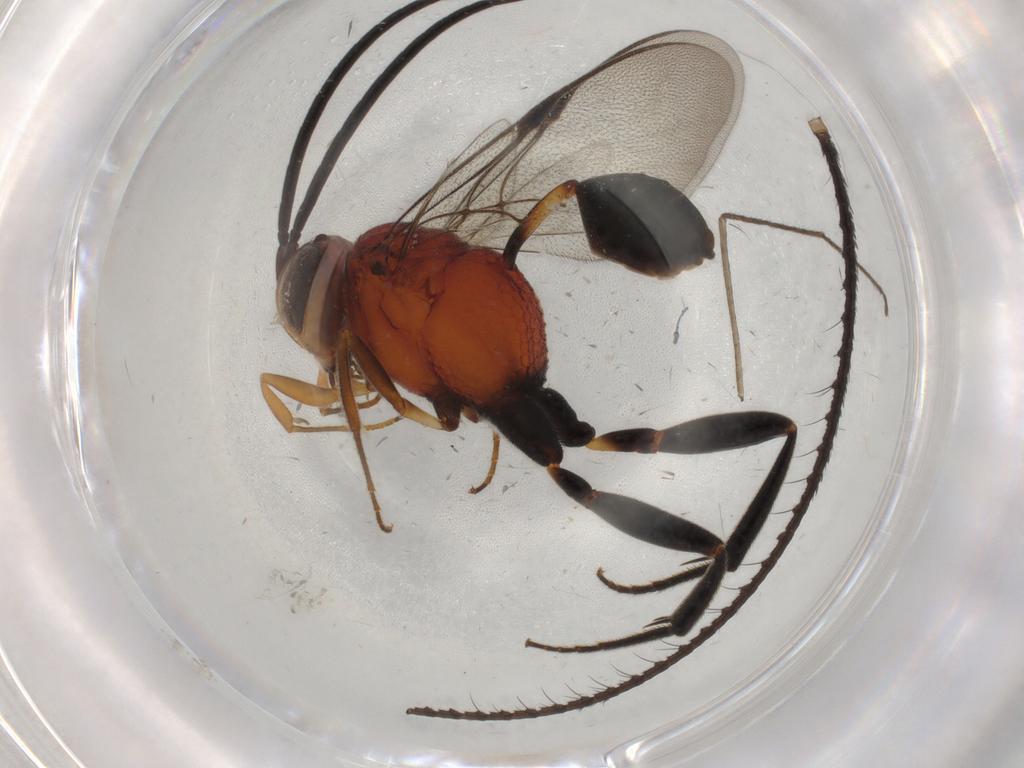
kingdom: Animalia
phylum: Arthropoda
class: Insecta
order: Hymenoptera
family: Evaniidae
